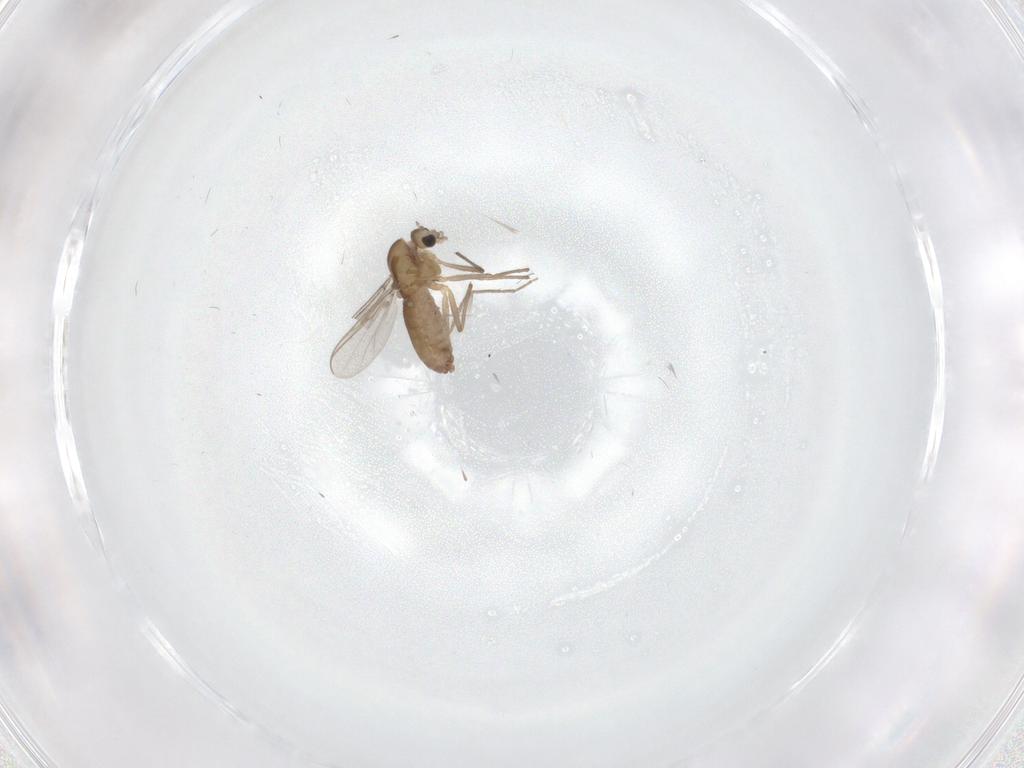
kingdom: Animalia
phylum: Arthropoda
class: Insecta
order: Diptera
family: Chironomidae
